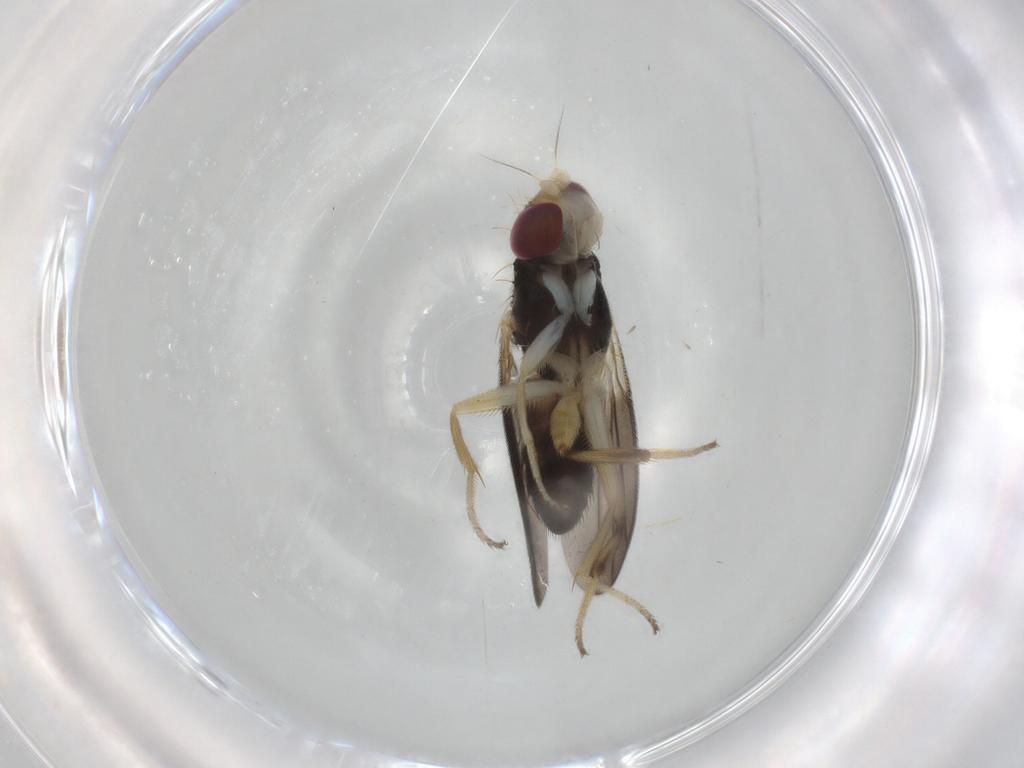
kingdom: Animalia
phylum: Arthropoda
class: Insecta
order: Diptera
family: Clusiidae
